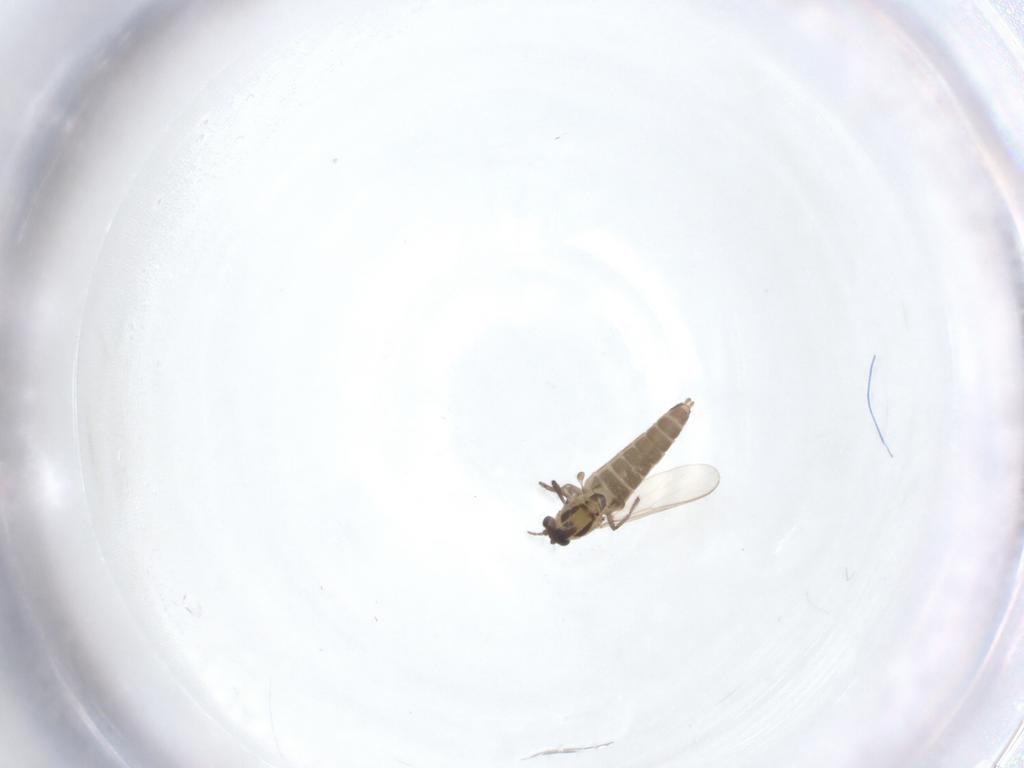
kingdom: Animalia
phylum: Arthropoda
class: Insecta
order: Diptera
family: Chironomidae
